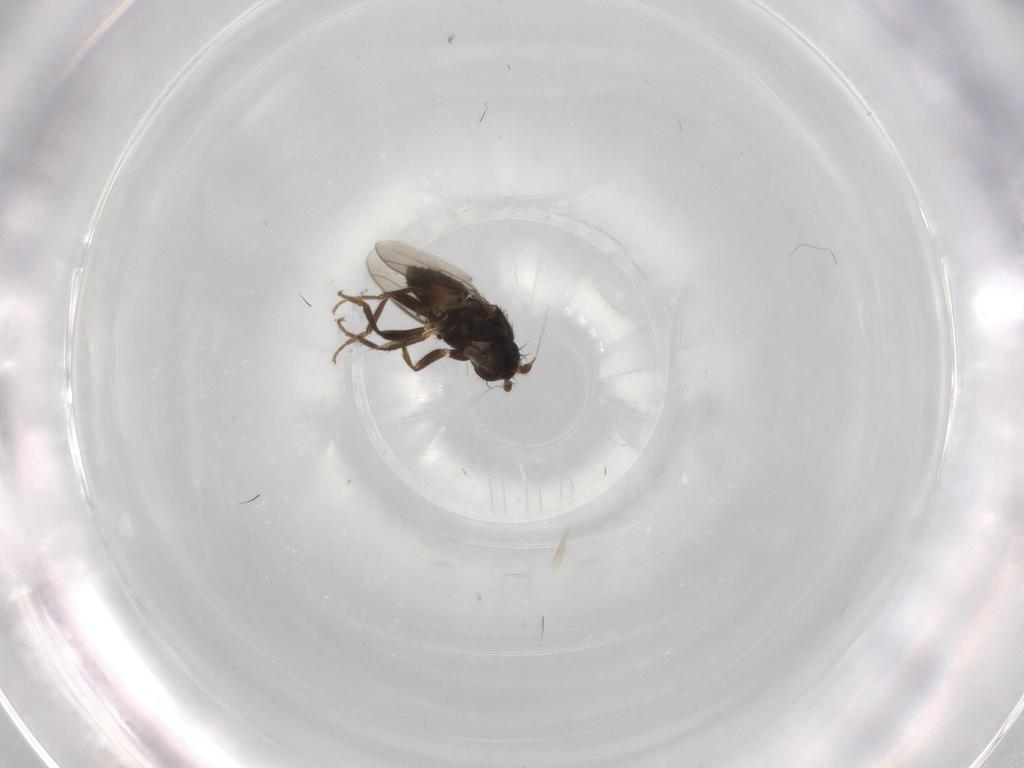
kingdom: Animalia
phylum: Arthropoda
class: Insecta
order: Diptera
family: Sphaeroceridae
